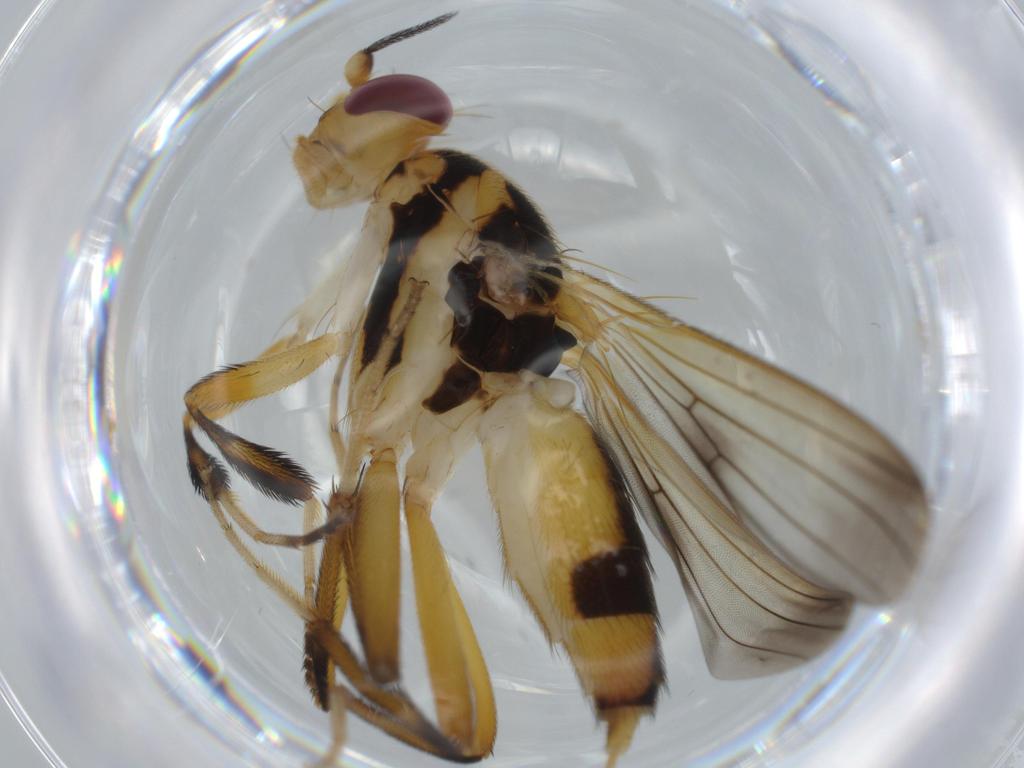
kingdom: Animalia
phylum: Arthropoda
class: Insecta
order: Diptera
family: Clusiidae
